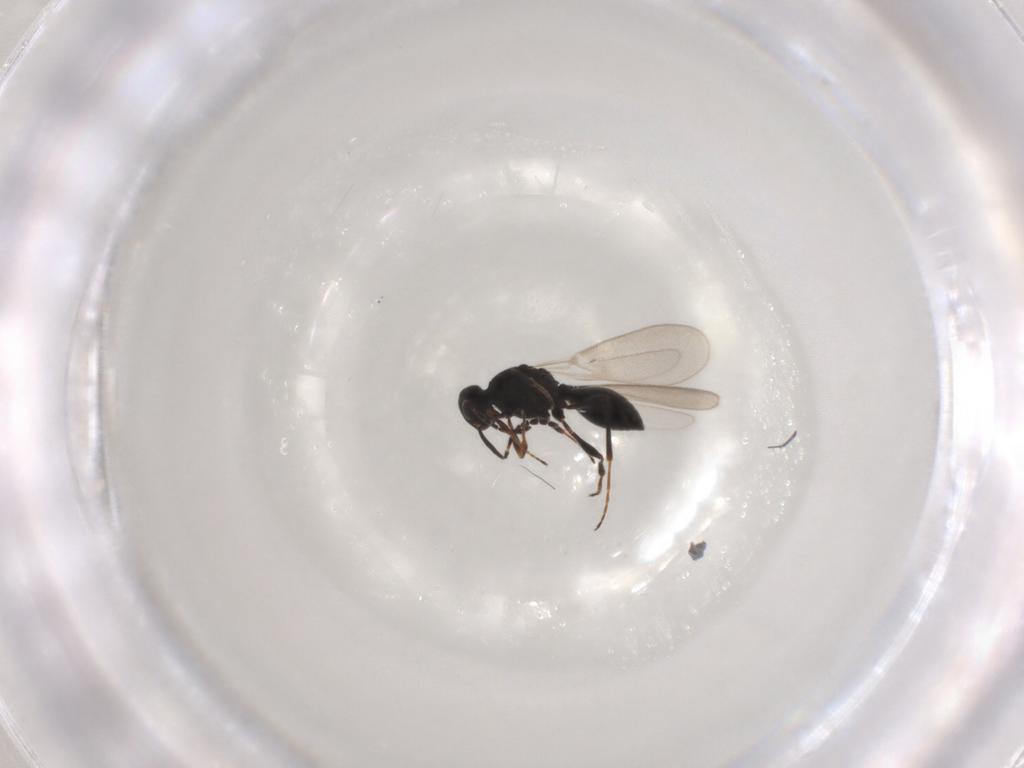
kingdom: Animalia
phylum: Arthropoda
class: Insecta
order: Hymenoptera
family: Platygastridae
